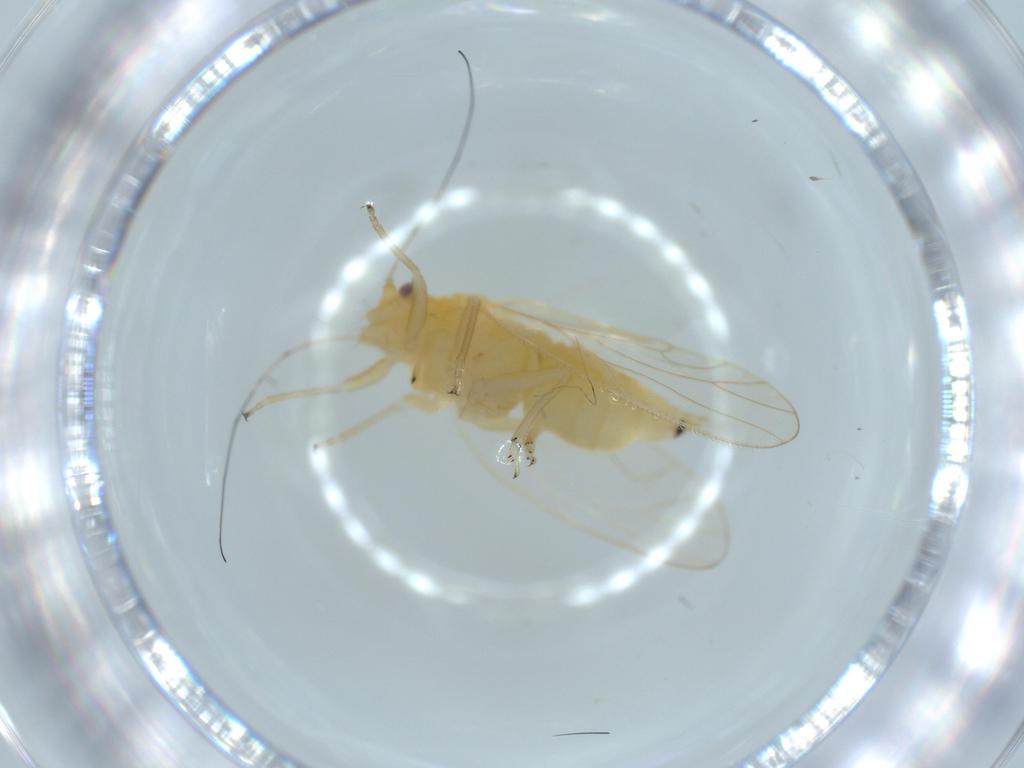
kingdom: Animalia
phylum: Arthropoda
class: Insecta
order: Hemiptera
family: Psyllidae
